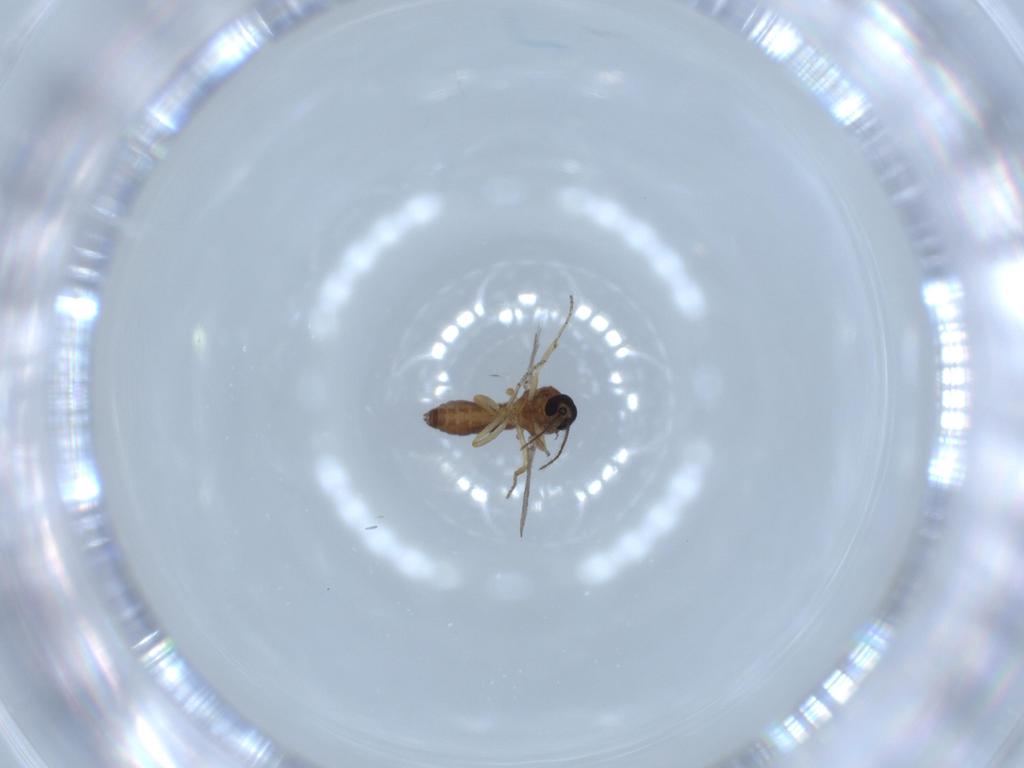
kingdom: Animalia
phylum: Arthropoda
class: Insecta
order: Diptera
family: Ceratopogonidae
